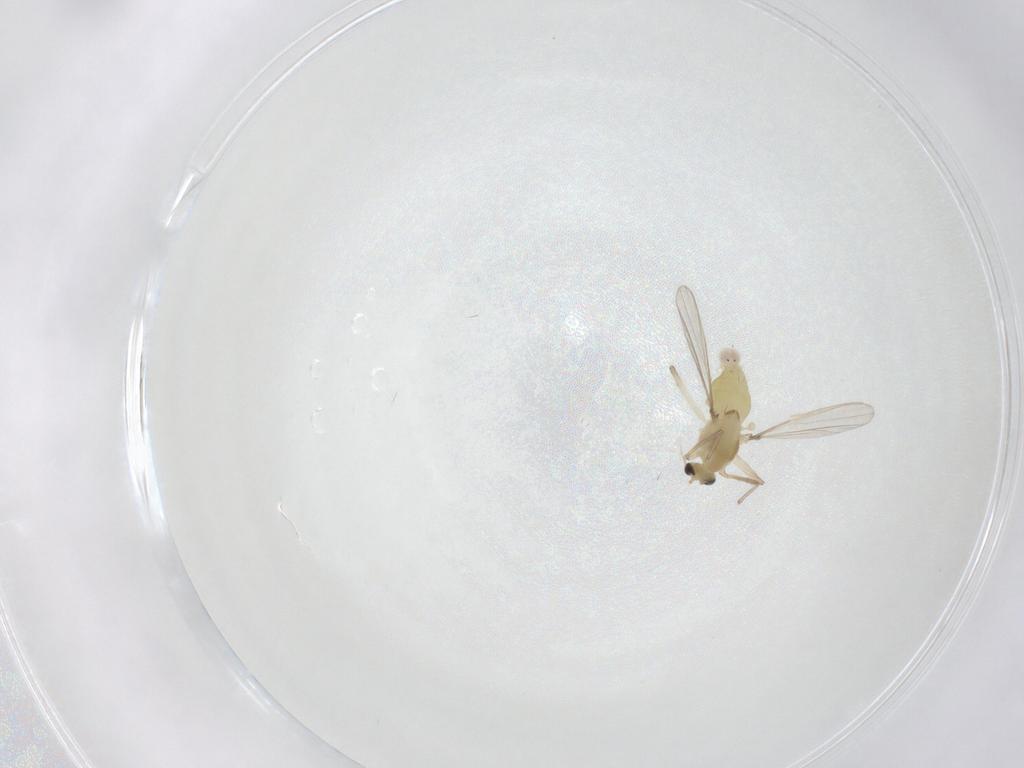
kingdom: Animalia
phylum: Arthropoda
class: Insecta
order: Diptera
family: Chironomidae
